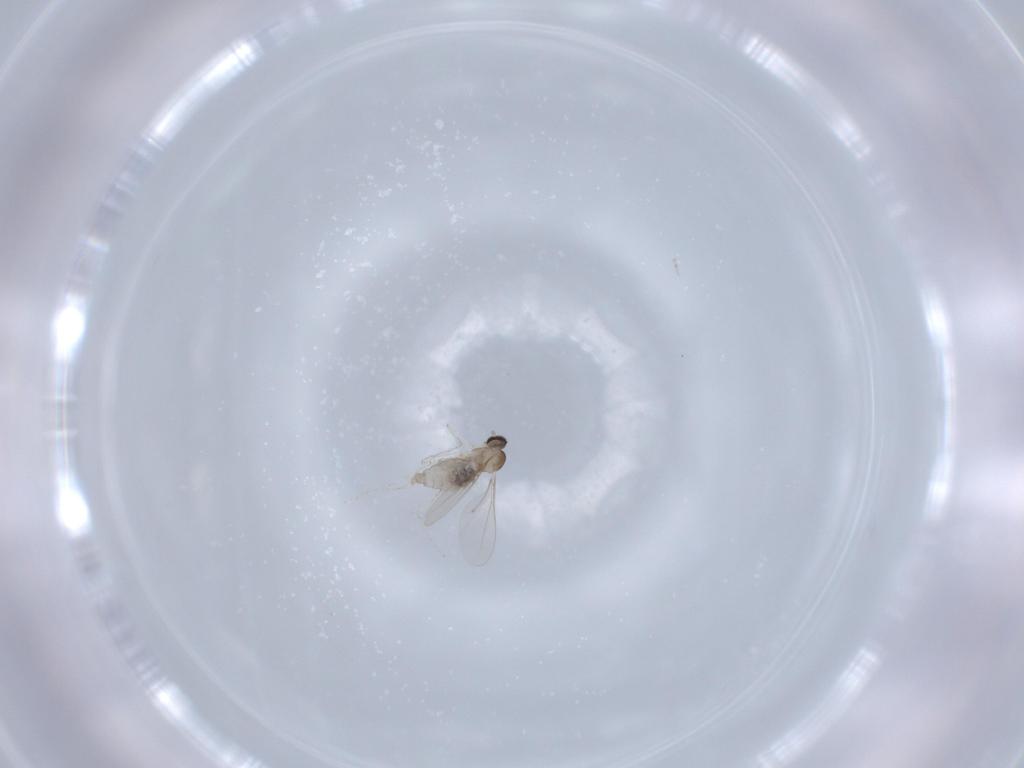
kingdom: Animalia
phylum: Arthropoda
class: Insecta
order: Diptera
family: Cecidomyiidae
